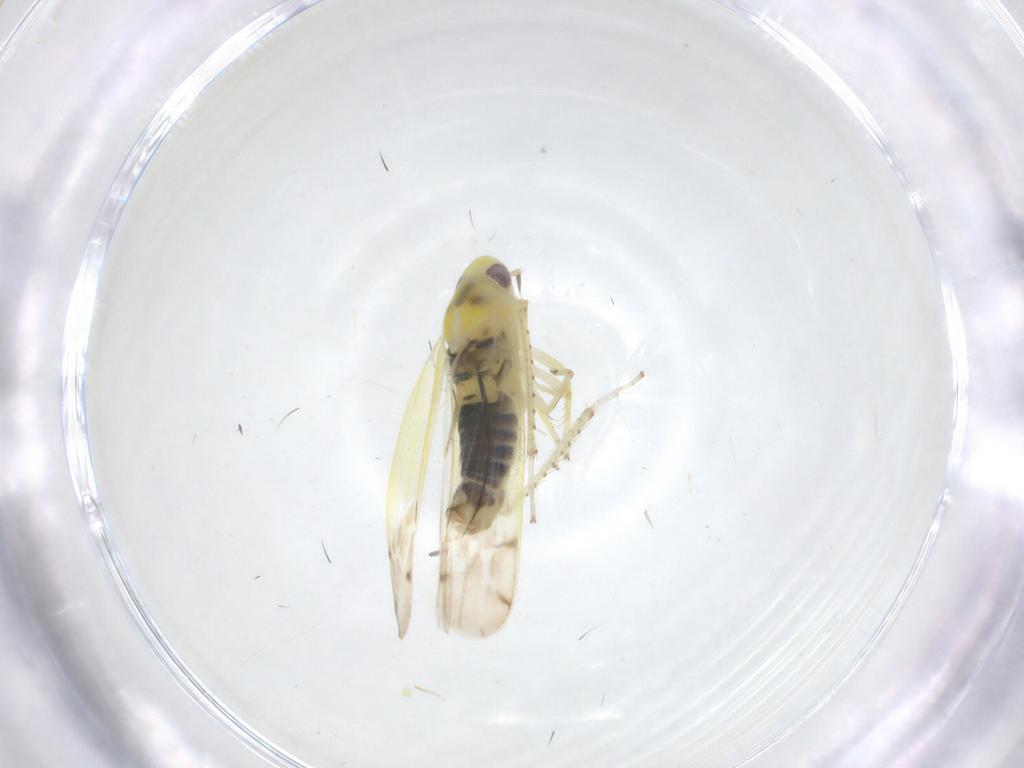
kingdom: Animalia
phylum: Arthropoda
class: Insecta
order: Hemiptera
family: Cicadellidae
